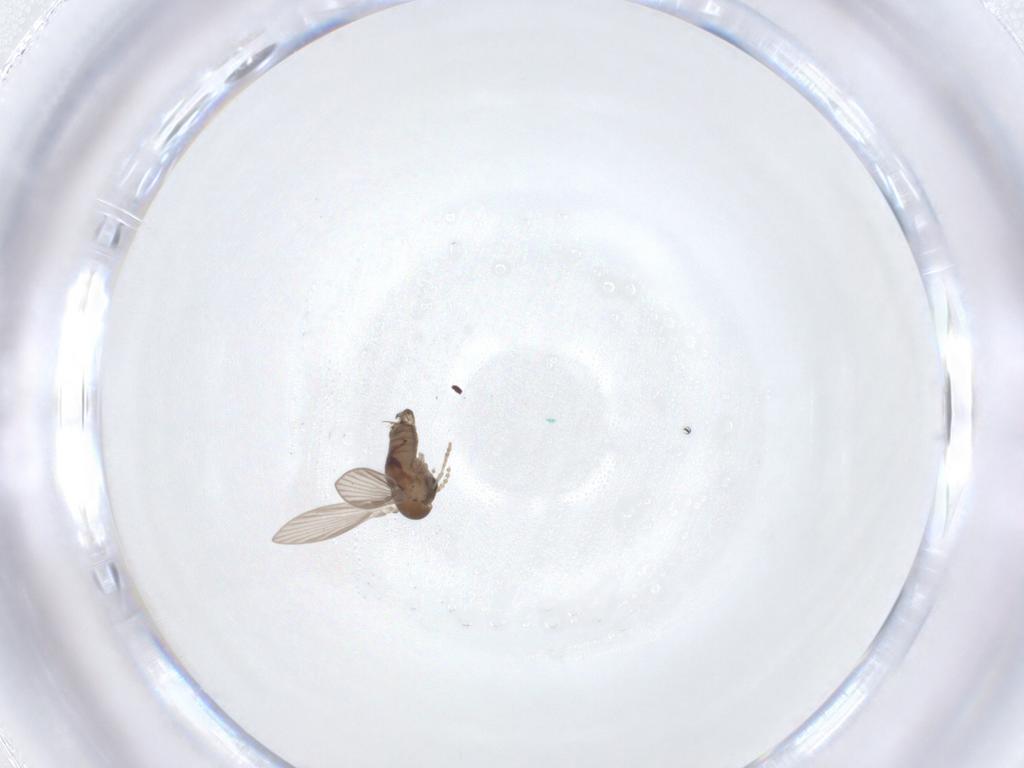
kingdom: Animalia
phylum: Arthropoda
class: Insecta
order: Diptera
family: Psychodidae
